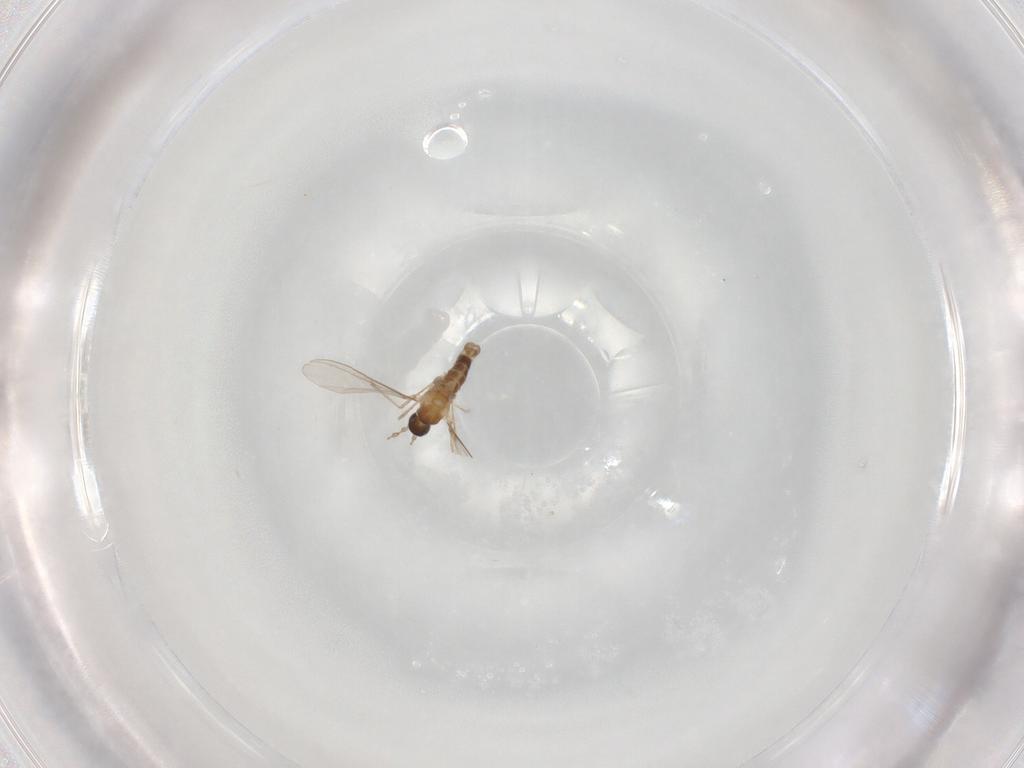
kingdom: Animalia
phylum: Arthropoda
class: Insecta
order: Diptera
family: Cecidomyiidae
